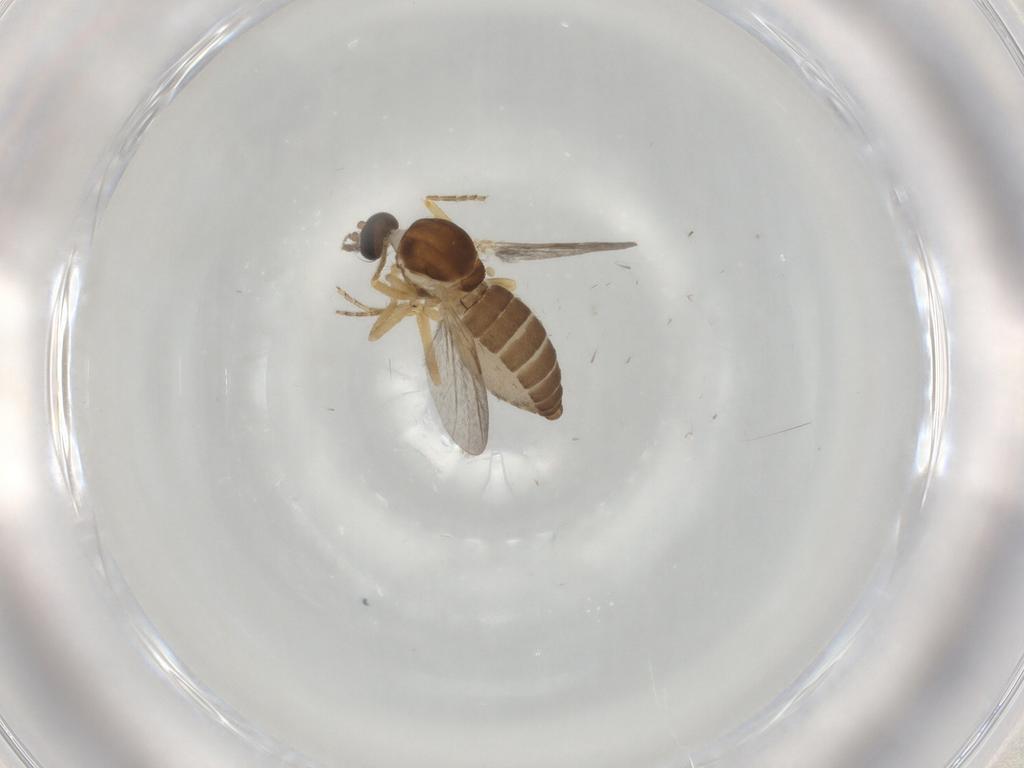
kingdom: Animalia
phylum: Arthropoda
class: Insecta
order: Diptera
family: Ceratopogonidae
